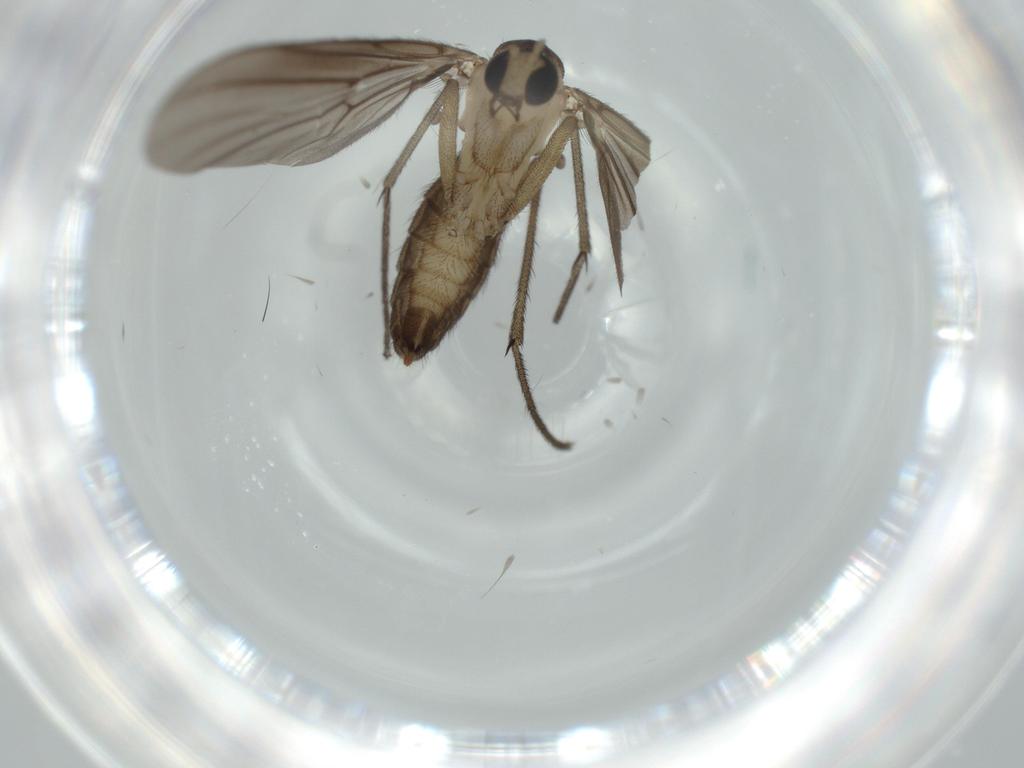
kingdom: Animalia
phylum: Arthropoda
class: Insecta
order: Diptera
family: Diadocidiidae
